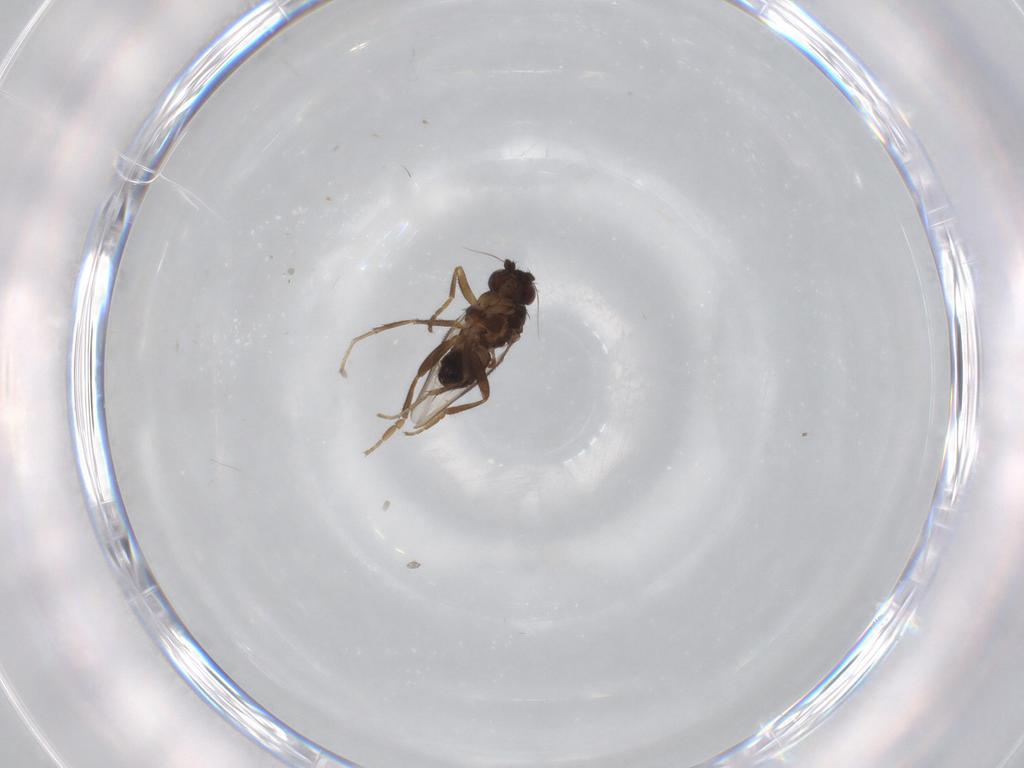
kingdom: Animalia
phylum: Arthropoda
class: Insecta
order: Diptera
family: Sphaeroceridae
